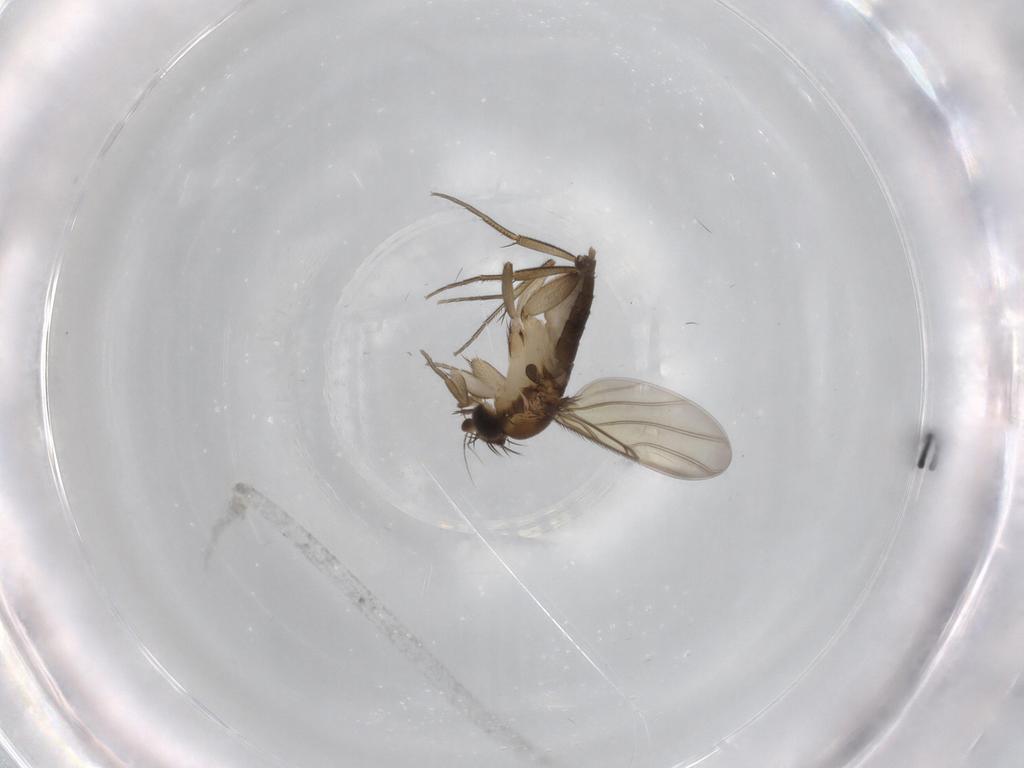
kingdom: Animalia
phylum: Arthropoda
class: Insecta
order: Diptera
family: Phoridae
